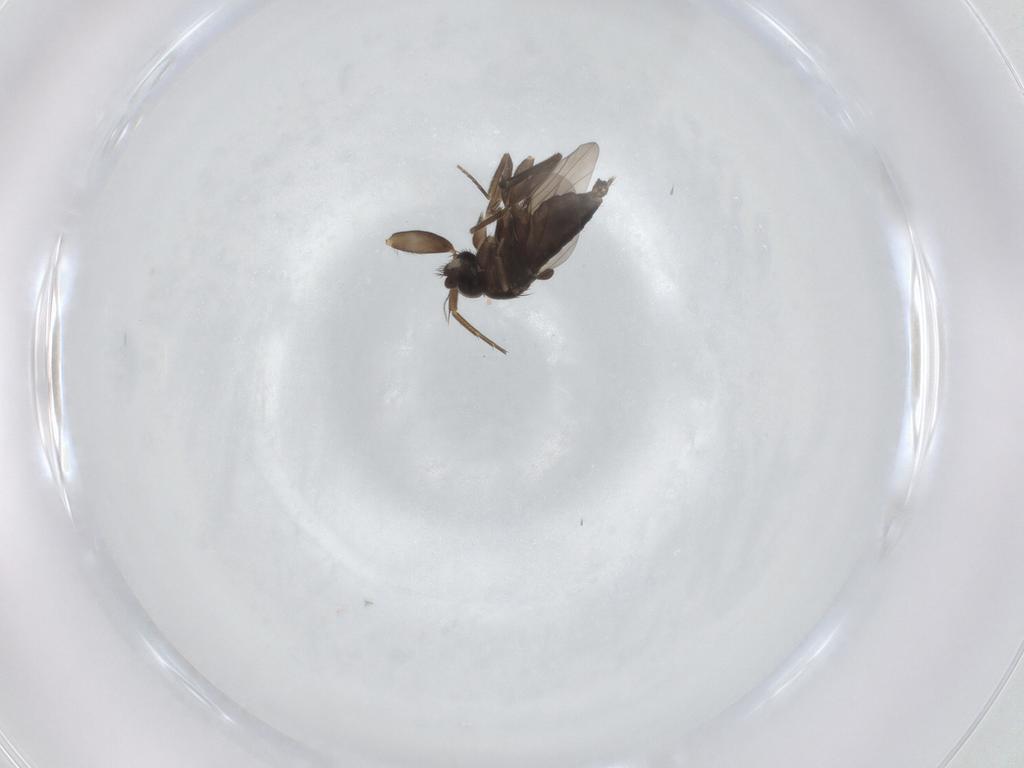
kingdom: Animalia
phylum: Arthropoda
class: Insecta
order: Diptera
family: Phoridae
